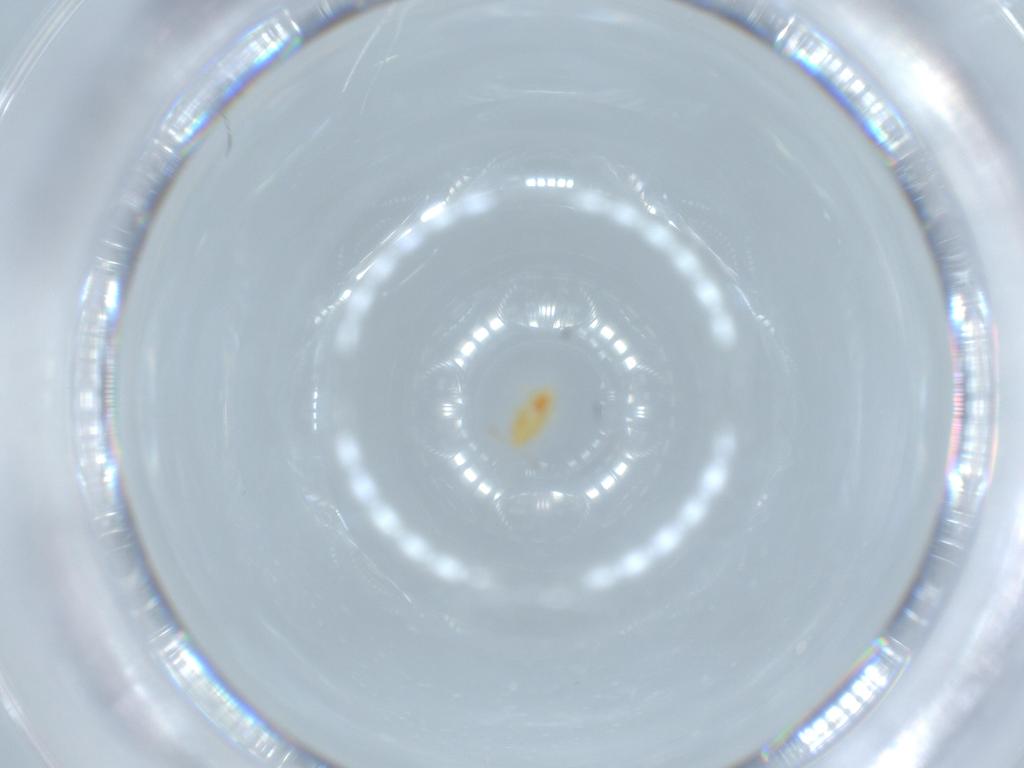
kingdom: Animalia
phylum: Arthropoda
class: Insecta
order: Hemiptera
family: Anthocoridae
